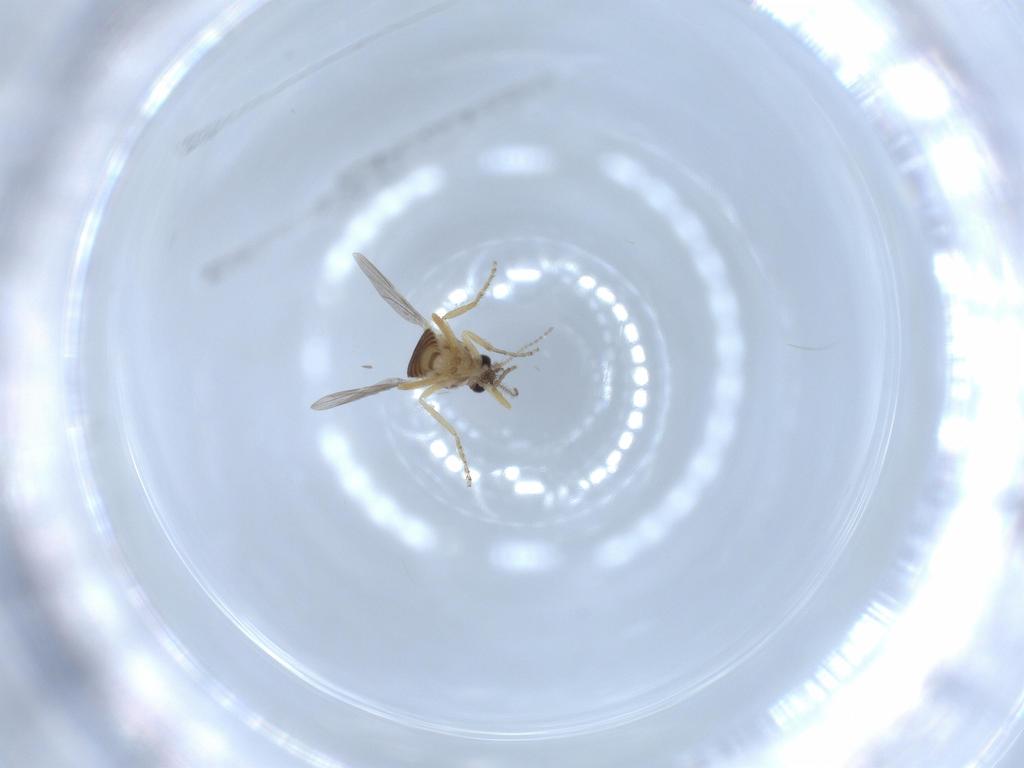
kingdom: Animalia
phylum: Arthropoda
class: Insecta
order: Diptera
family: Ceratopogonidae
